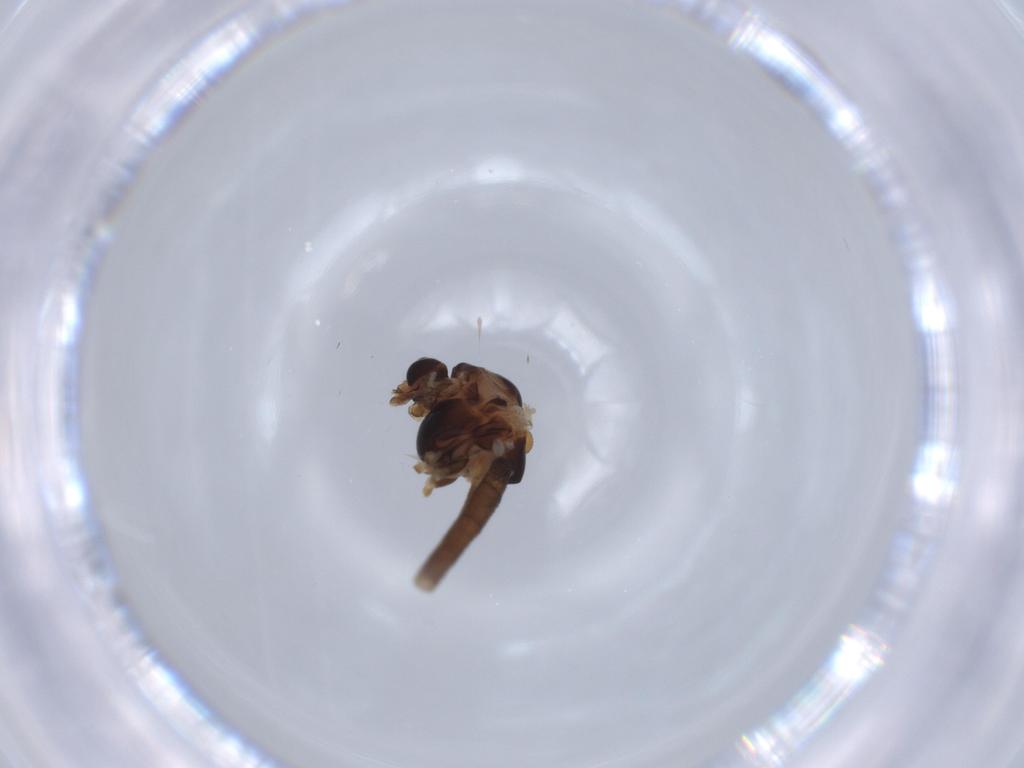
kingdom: Animalia
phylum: Arthropoda
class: Insecta
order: Diptera
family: Chironomidae
